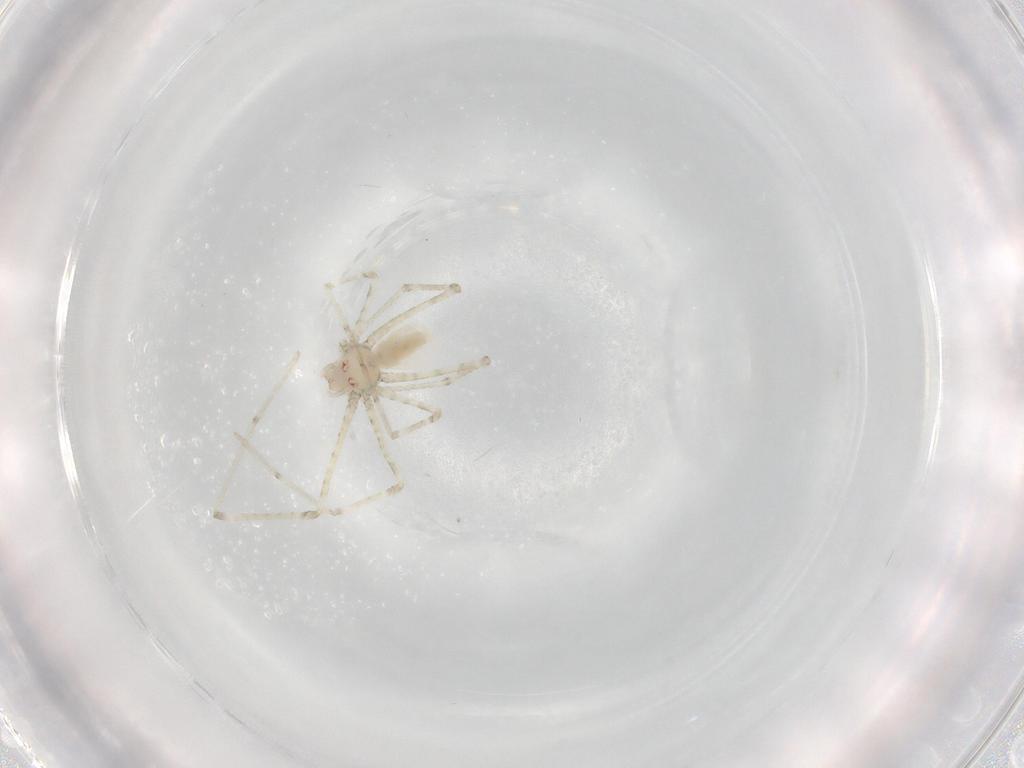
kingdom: Animalia
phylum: Arthropoda
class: Arachnida
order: Araneae
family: Pholcidae
